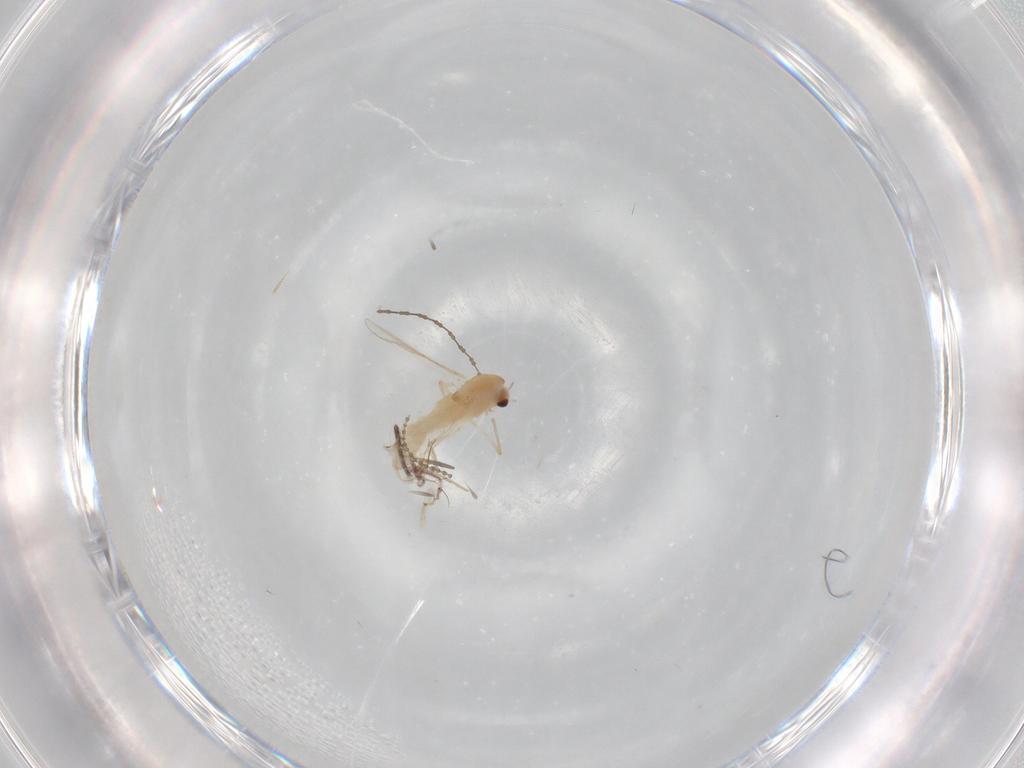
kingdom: Animalia
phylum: Arthropoda
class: Insecta
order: Diptera
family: Chironomidae
